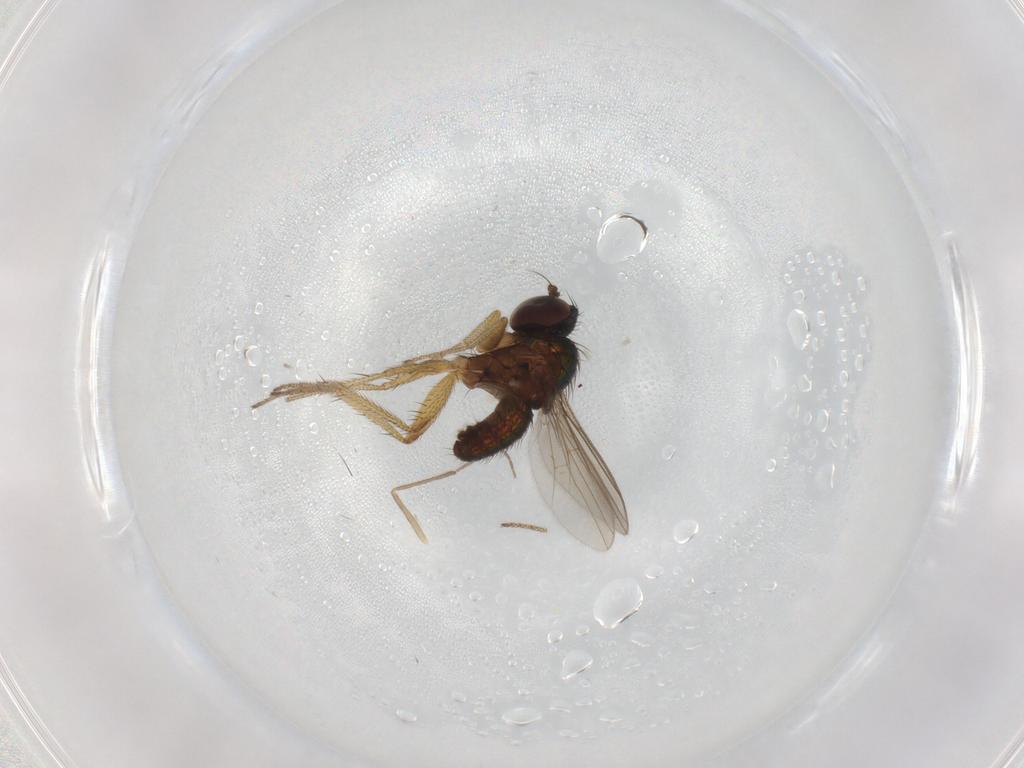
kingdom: Animalia
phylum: Arthropoda
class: Insecta
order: Diptera
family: Chironomidae
